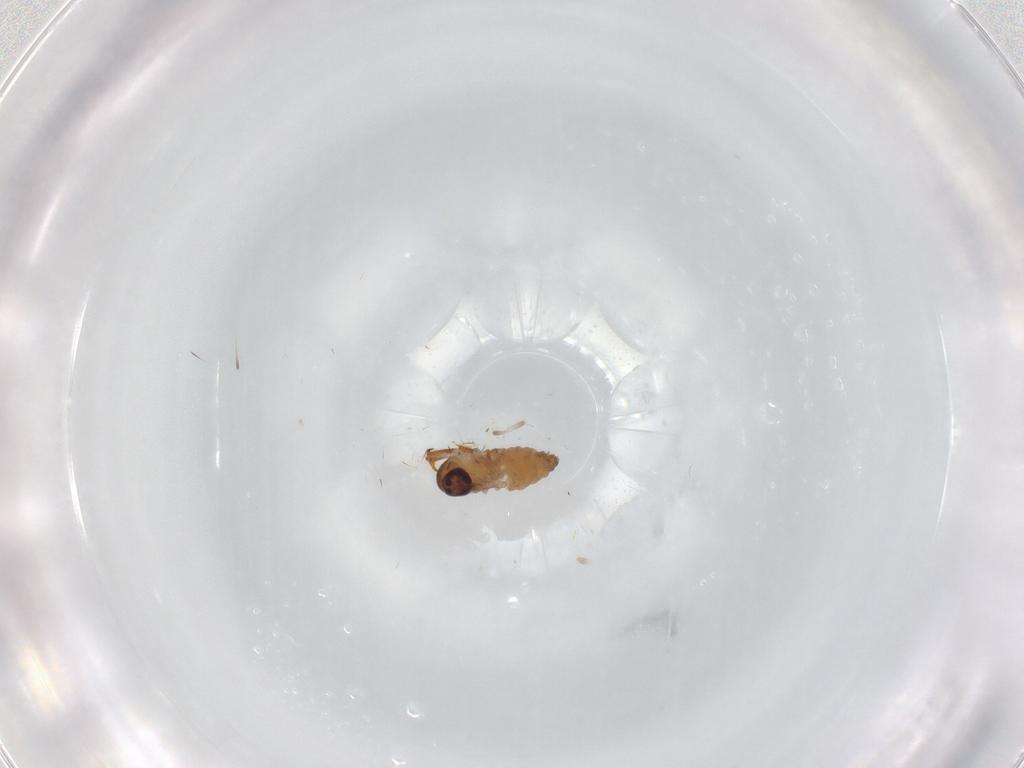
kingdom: Animalia
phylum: Arthropoda
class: Insecta
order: Diptera
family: Psychodidae
